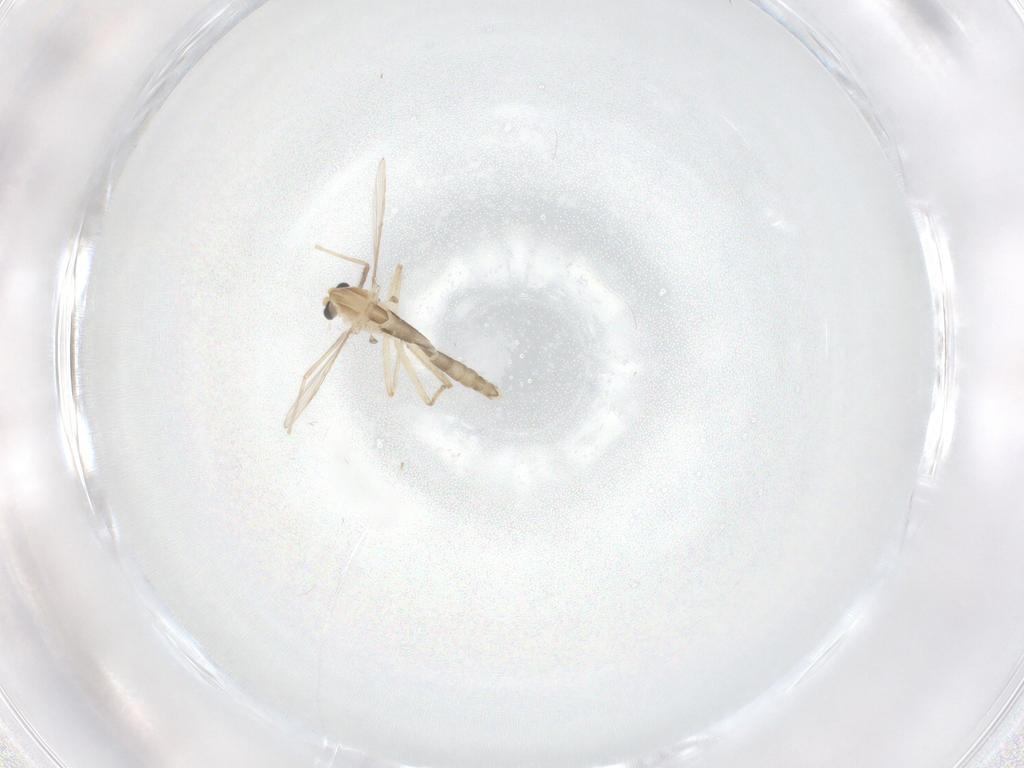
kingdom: Animalia
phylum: Arthropoda
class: Insecta
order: Diptera
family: Chironomidae
